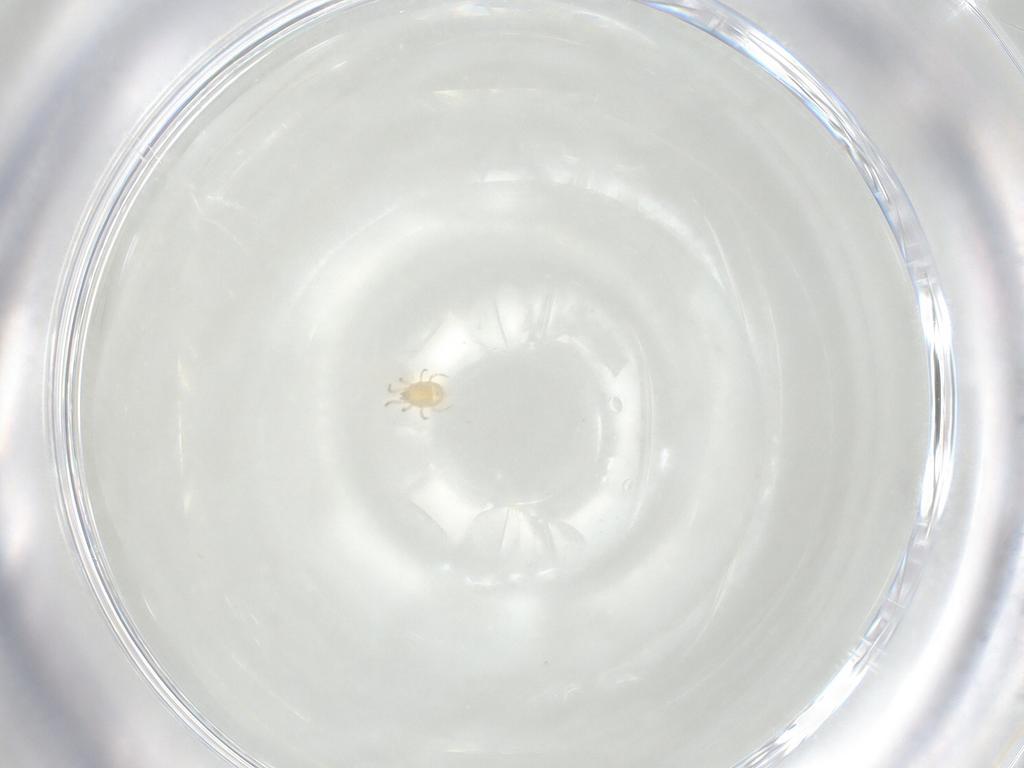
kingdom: Animalia
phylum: Arthropoda
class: Arachnida
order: Mesostigmata
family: Phytoseiidae
